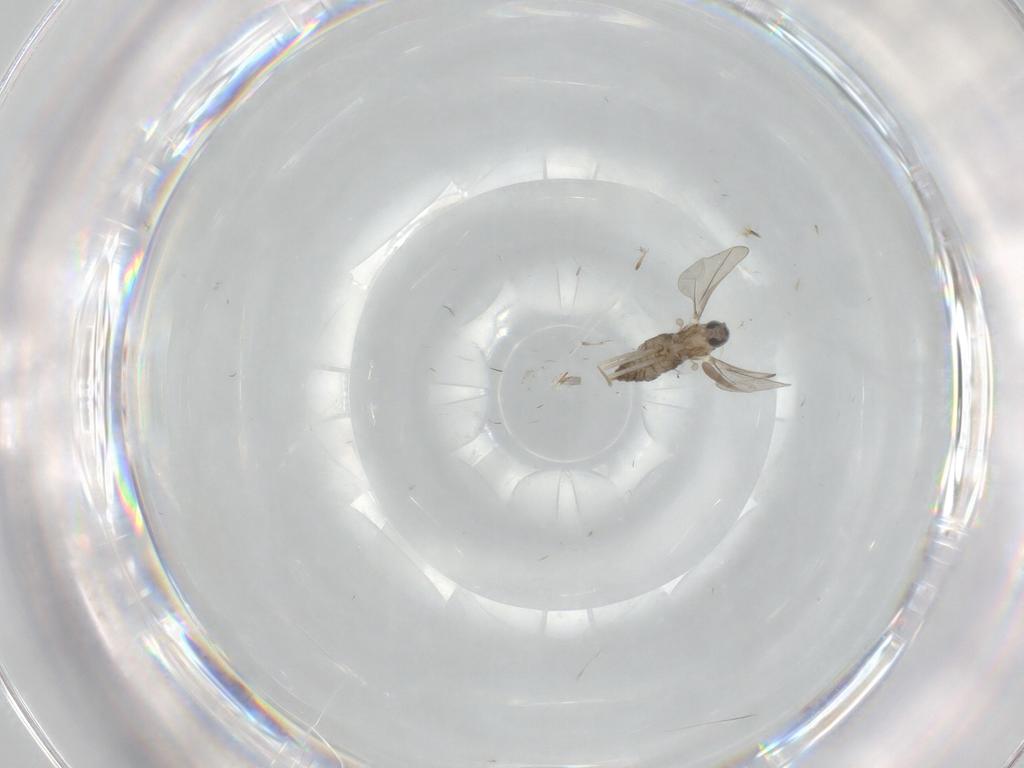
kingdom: Animalia
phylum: Arthropoda
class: Insecta
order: Diptera
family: Cecidomyiidae
